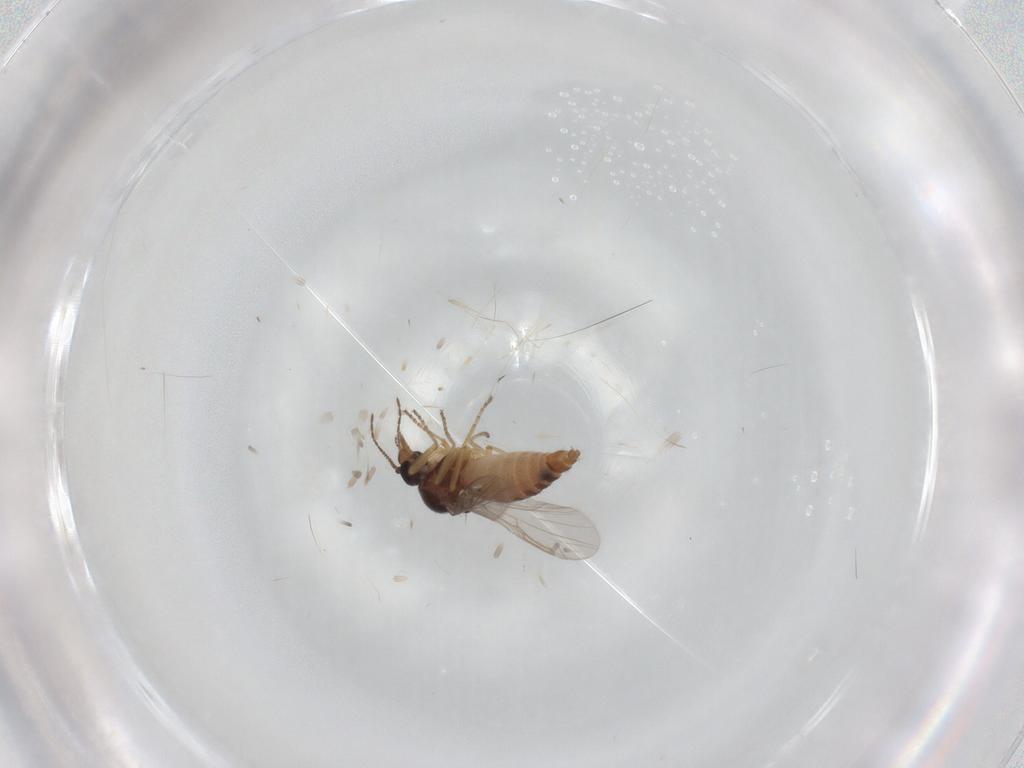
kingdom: Animalia
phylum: Arthropoda
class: Insecta
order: Diptera
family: Ceratopogonidae
